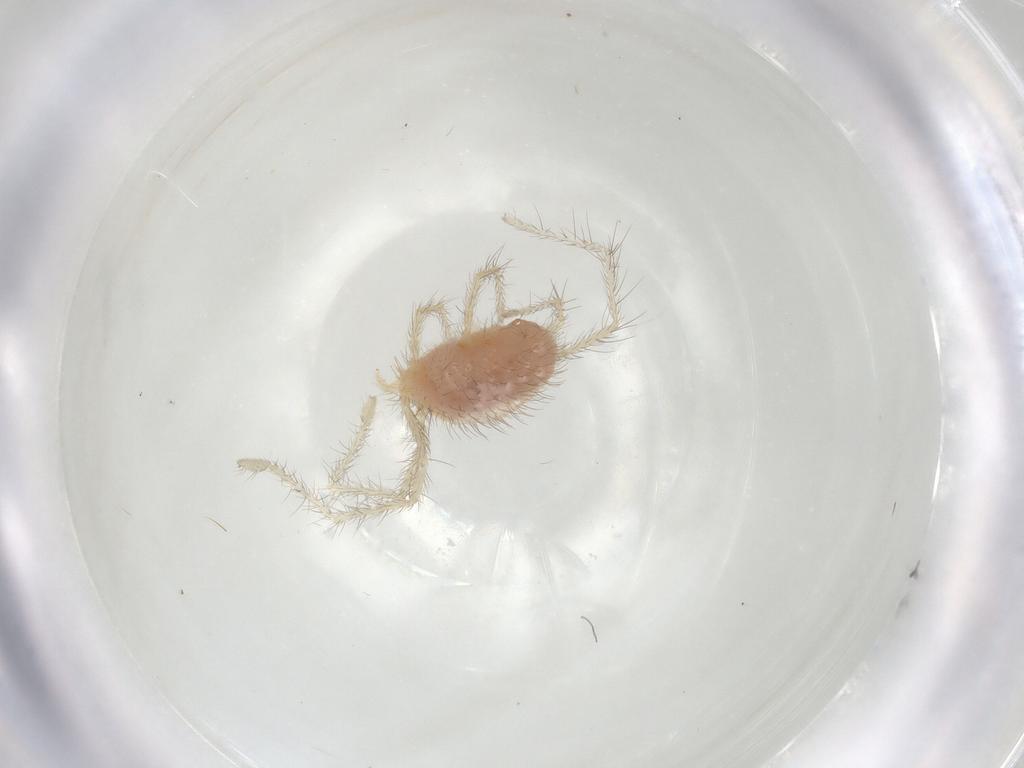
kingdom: Animalia
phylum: Arthropoda
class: Arachnida
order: Trombidiformes
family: Erythraeidae
